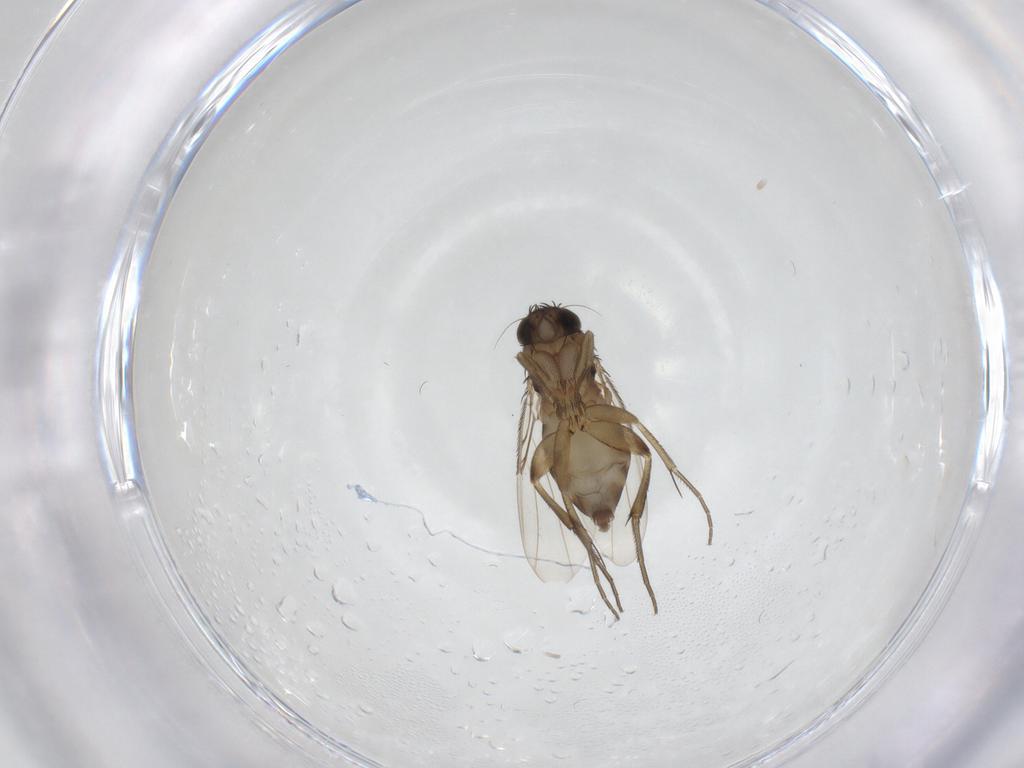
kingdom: Animalia
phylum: Arthropoda
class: Insecta
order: Diptera
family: Phoridae
